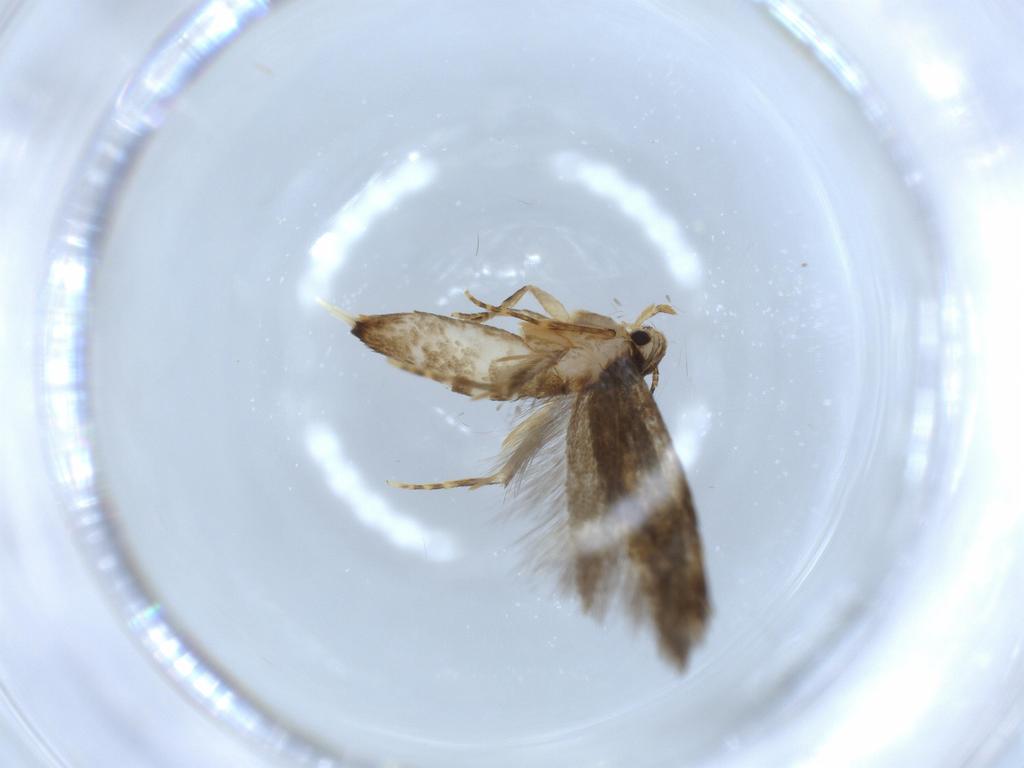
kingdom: Animalia
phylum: Arthropoda
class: Insecta
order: Lepidoptera
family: Tineidae
